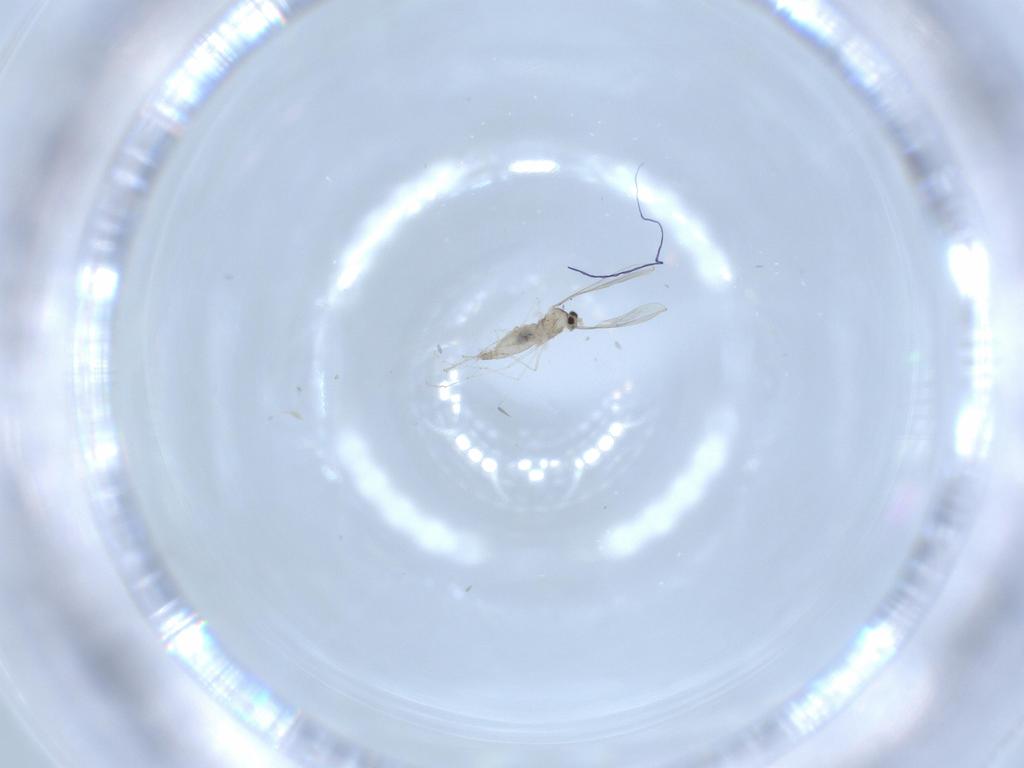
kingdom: Animalia
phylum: Arthropoda
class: Insecta
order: Diptera
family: Cecidomyiidae
